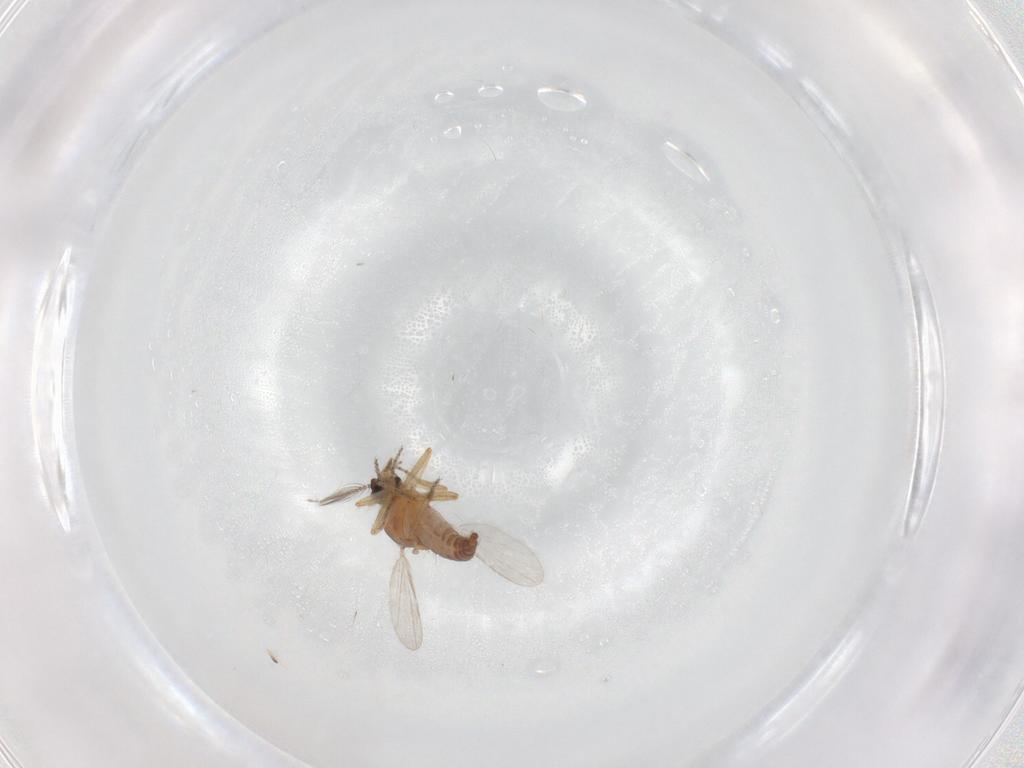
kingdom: Animalia
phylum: Arthropoda
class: Insecta
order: Diptera
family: Ceratopogonidae
